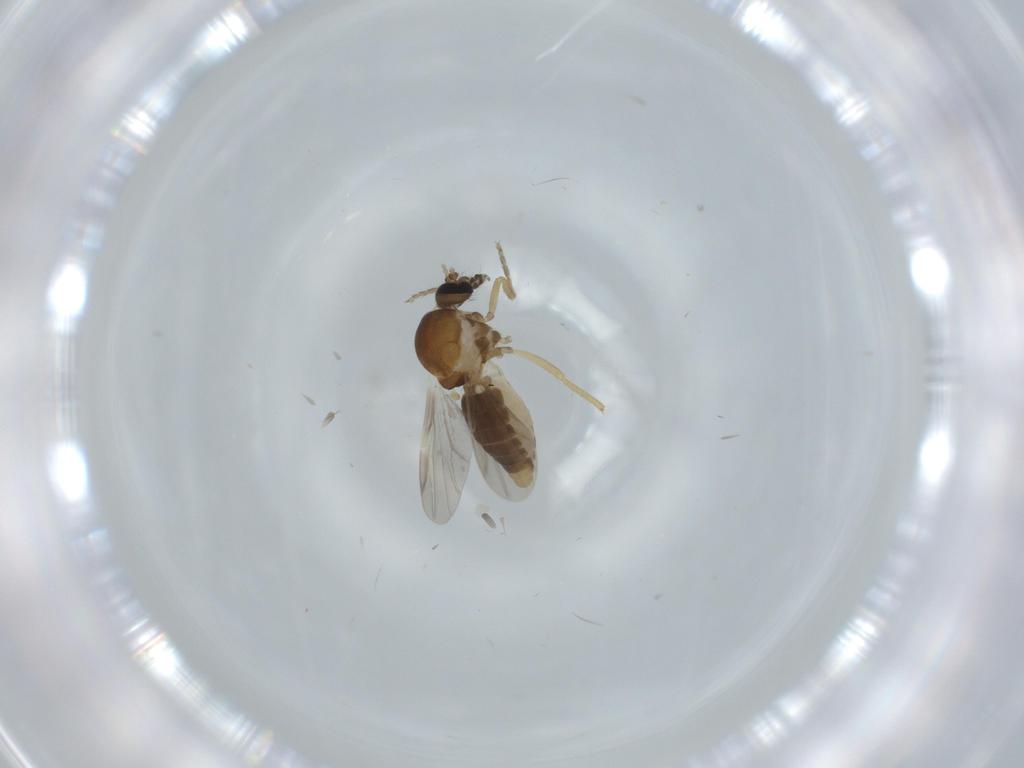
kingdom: Animalia
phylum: Arthropoda
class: Insecta
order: Diptera
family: Ceratopogonidae
